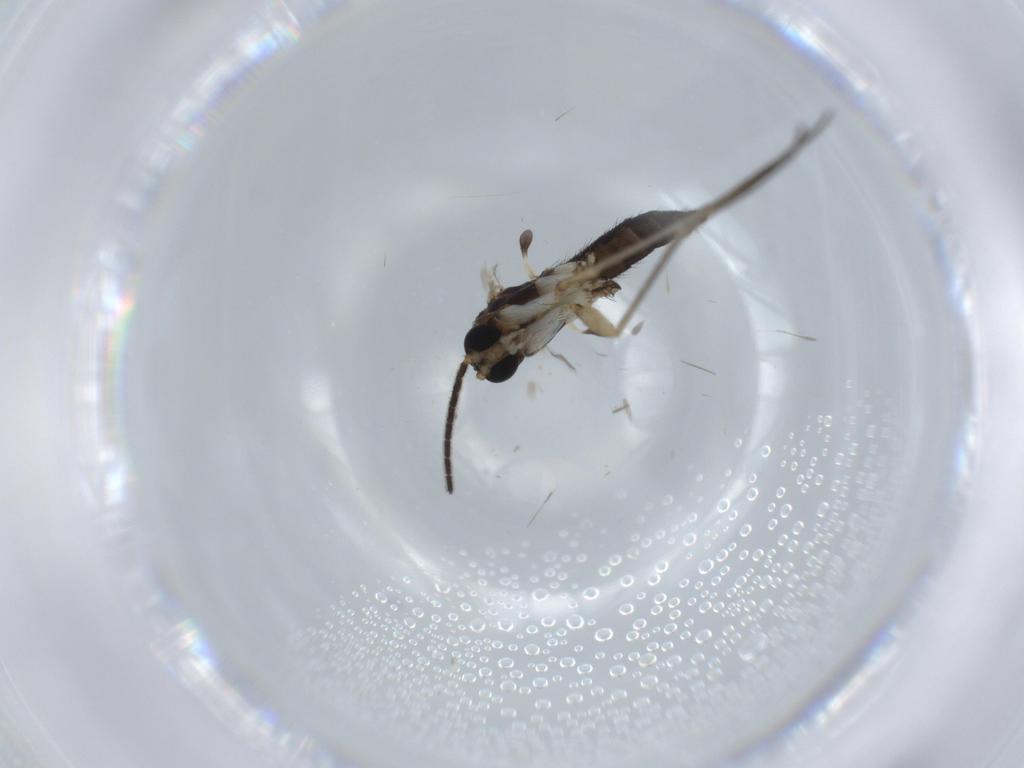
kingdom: Animalia
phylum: Arthropoda
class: Insecta
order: Diptera
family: Sciaridae
